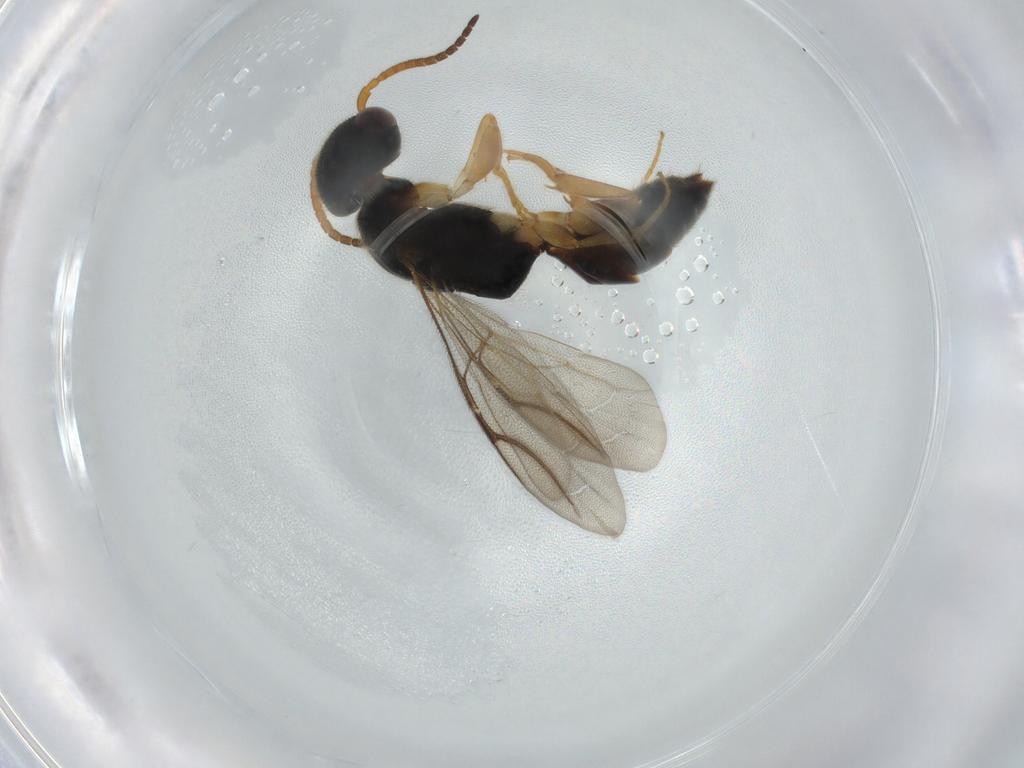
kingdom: Animalia
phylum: Arthropoda
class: Insecta
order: Hymenoptera
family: Bethylidae
